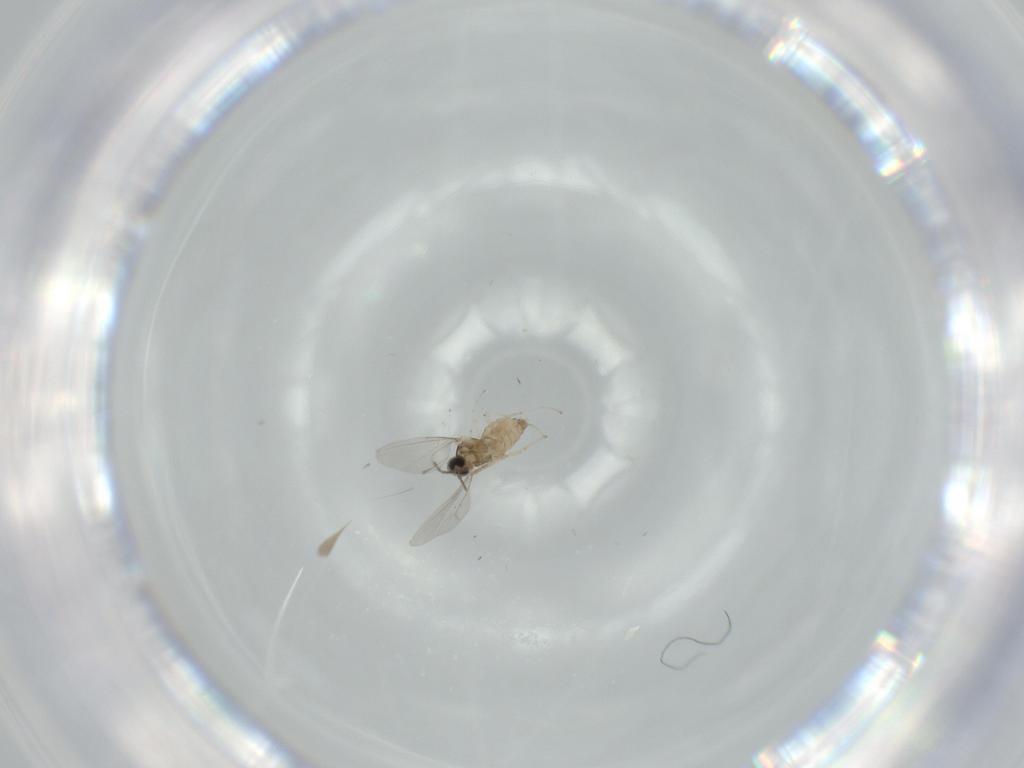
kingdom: Animalia
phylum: Arthropoda
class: Insecta
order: Diptera
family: Cecidomyiidae
